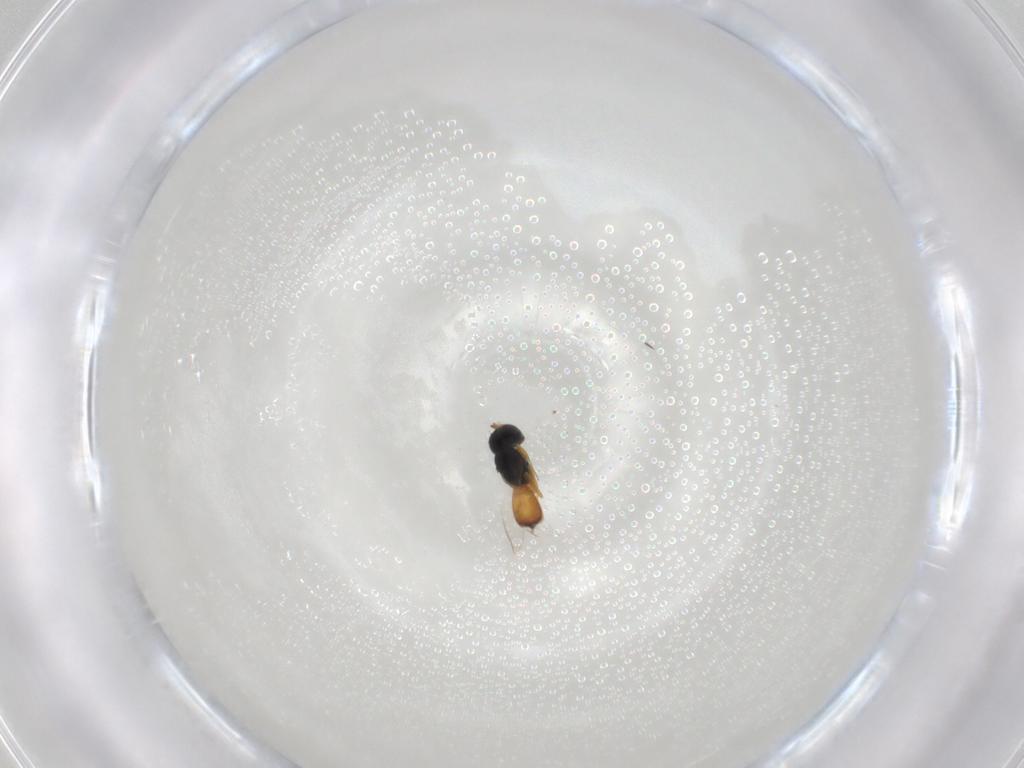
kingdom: Animalia
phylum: Arthropoda
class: Insecta
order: Hymenoptera
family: Scelionidae
